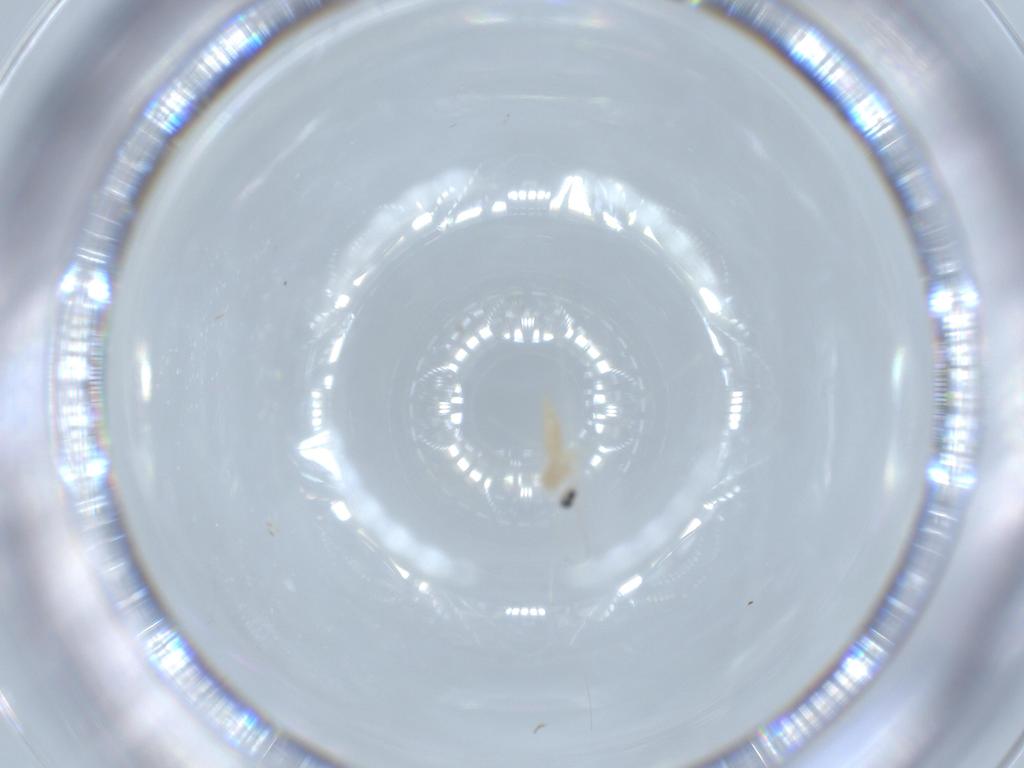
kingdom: Animalia
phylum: Arthropoda
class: Insecta
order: Diptera
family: Cecidomyiidae
